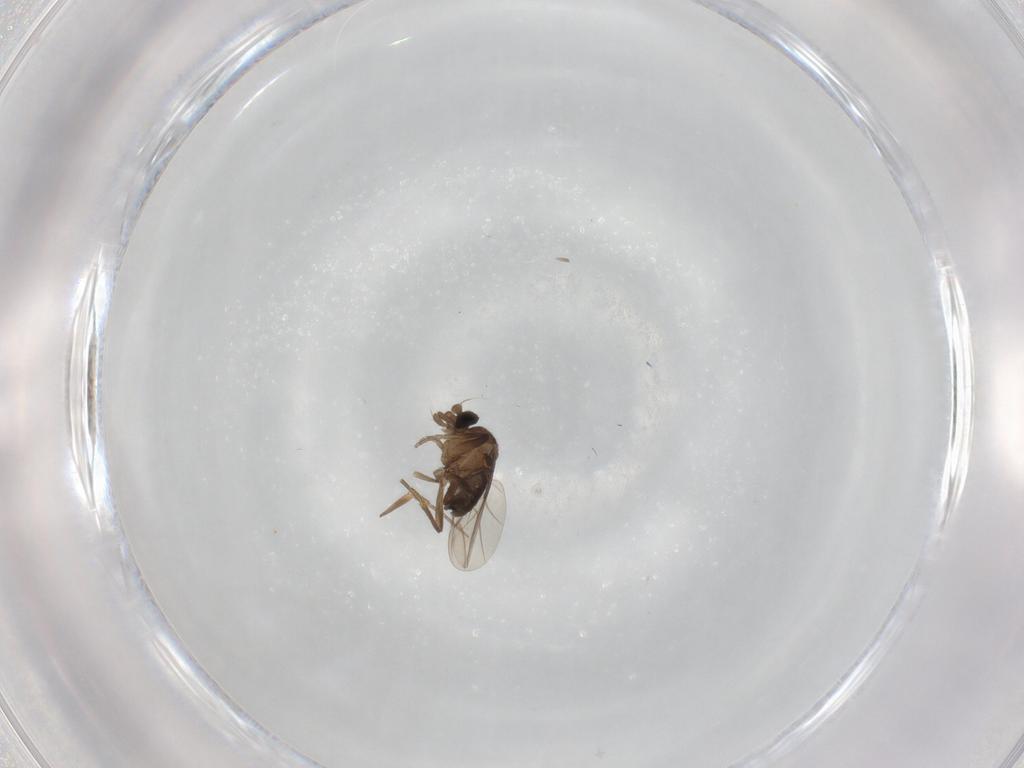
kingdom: Animalia
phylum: Arthropoda
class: Insecta
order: Diptera
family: Phoridae
